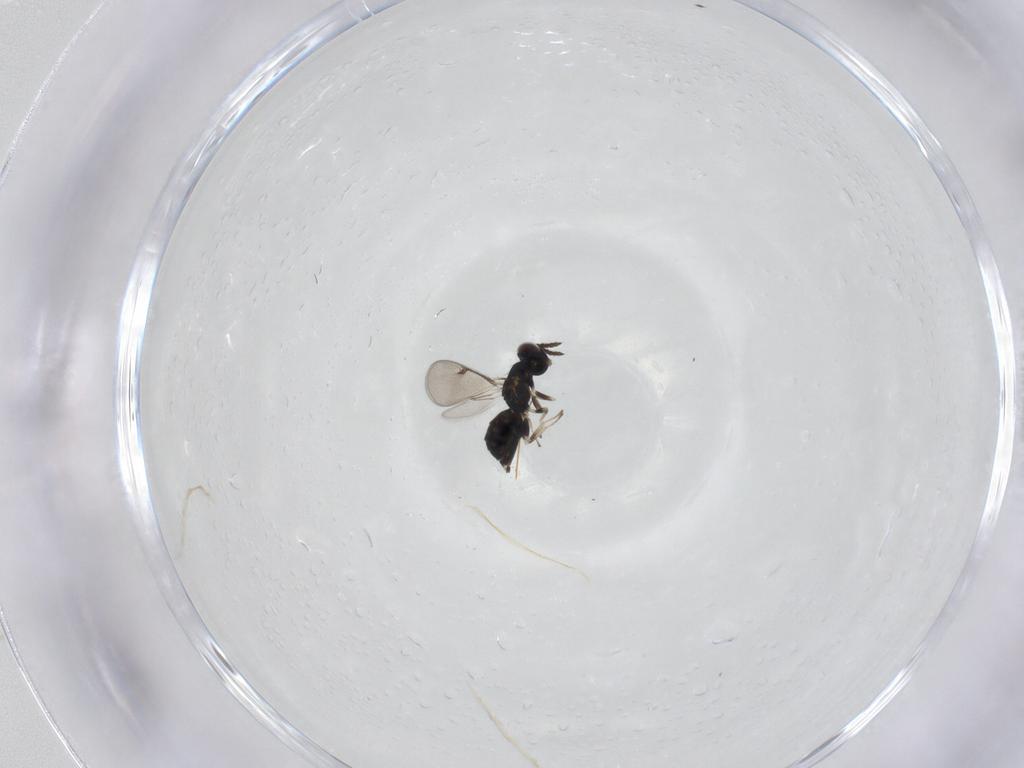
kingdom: Animalia
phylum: Arthropoda
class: Insecta
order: Hymenoptera
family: Eulophidae
